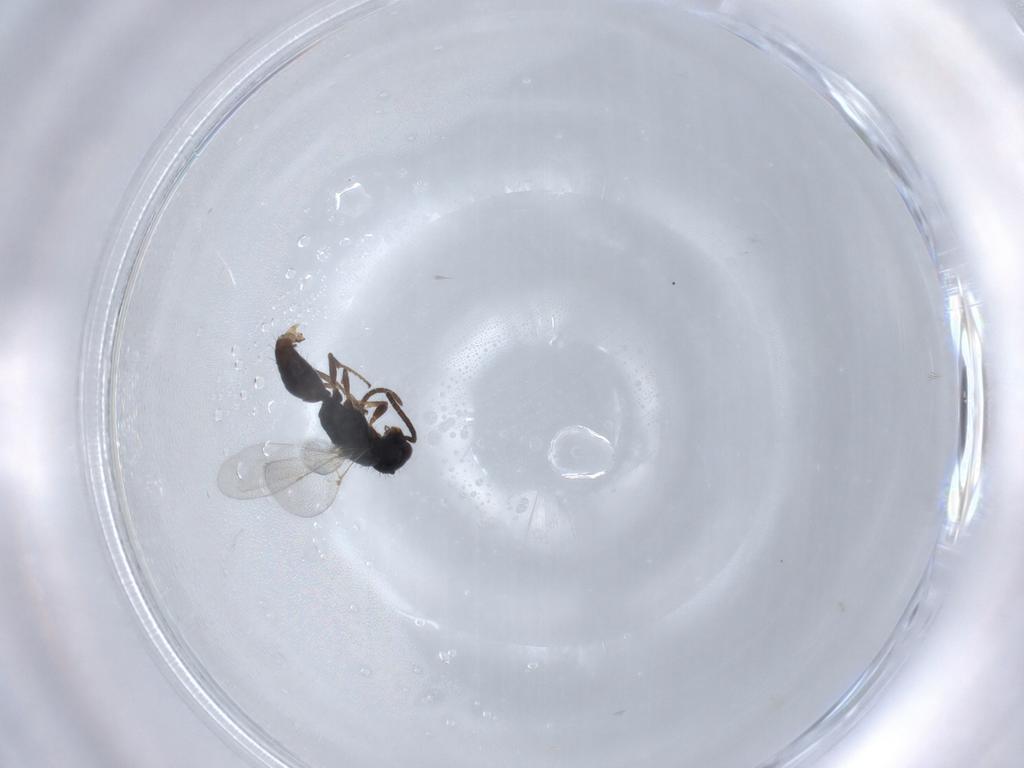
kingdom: Animalia
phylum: Arthropoda
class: Insecta
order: Hymenoptera
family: Bethylidae
